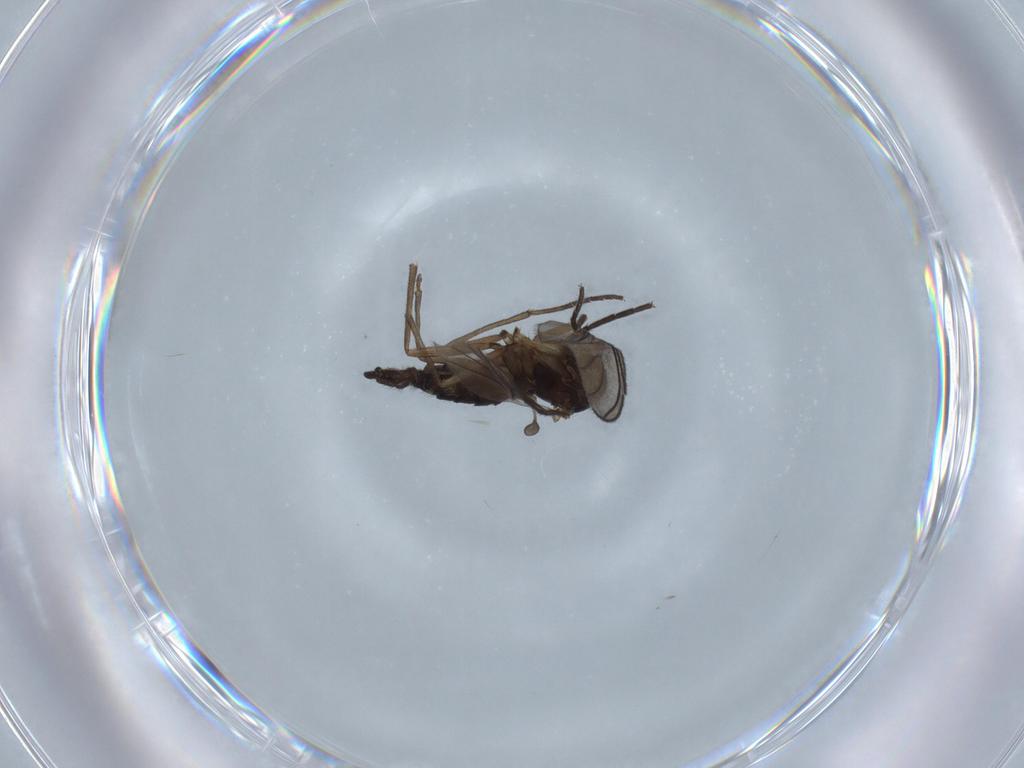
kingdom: Animalia
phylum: Arthropoda
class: Insecta
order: Diptera
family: Sciaridae
